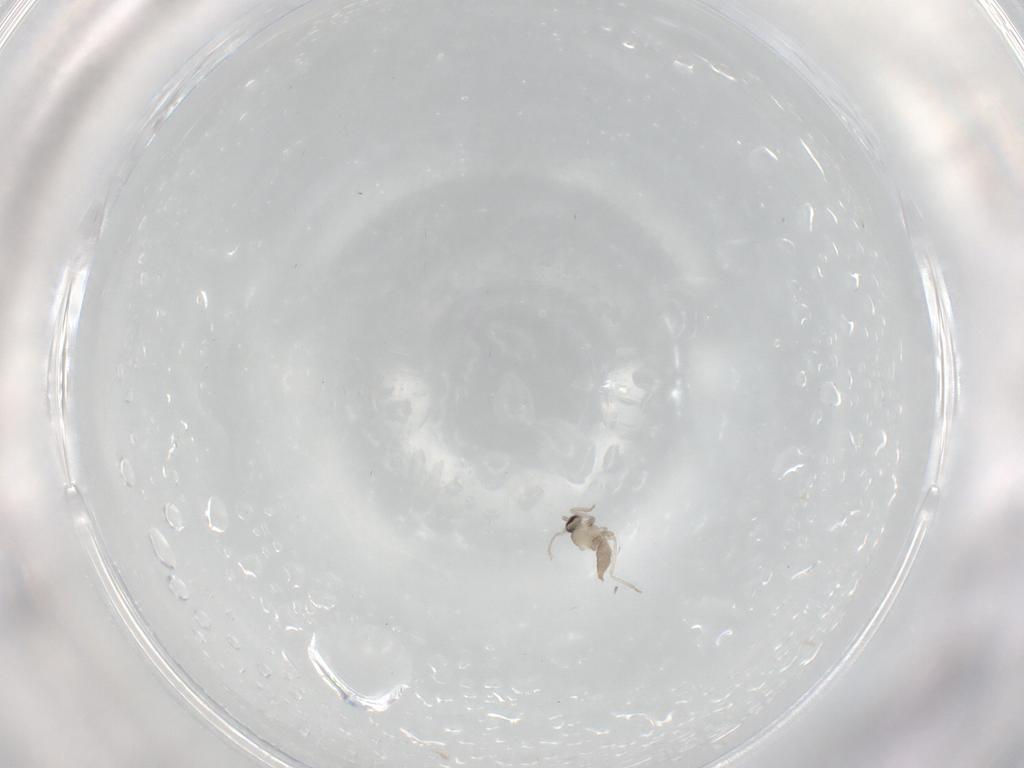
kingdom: Animalia
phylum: Arthropoda
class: Insecta
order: Diptera
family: Cecidomyiidae
